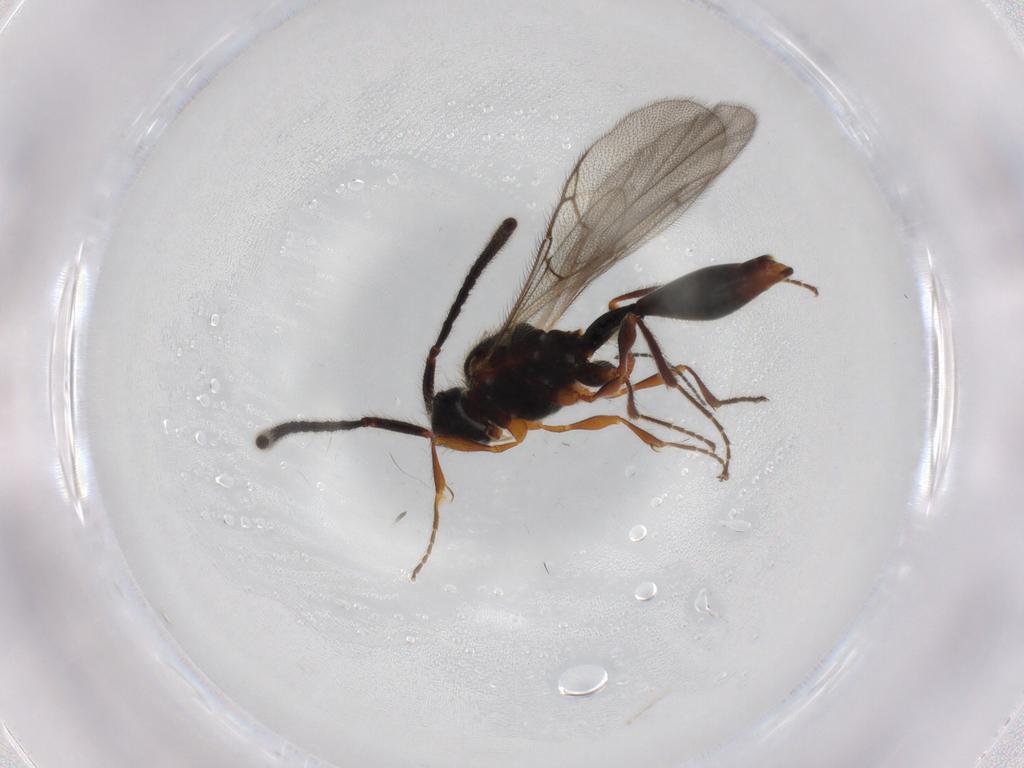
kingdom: Animalia
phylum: Arthropoda
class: Insecta
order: Hymenoptera
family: Diapriidae
